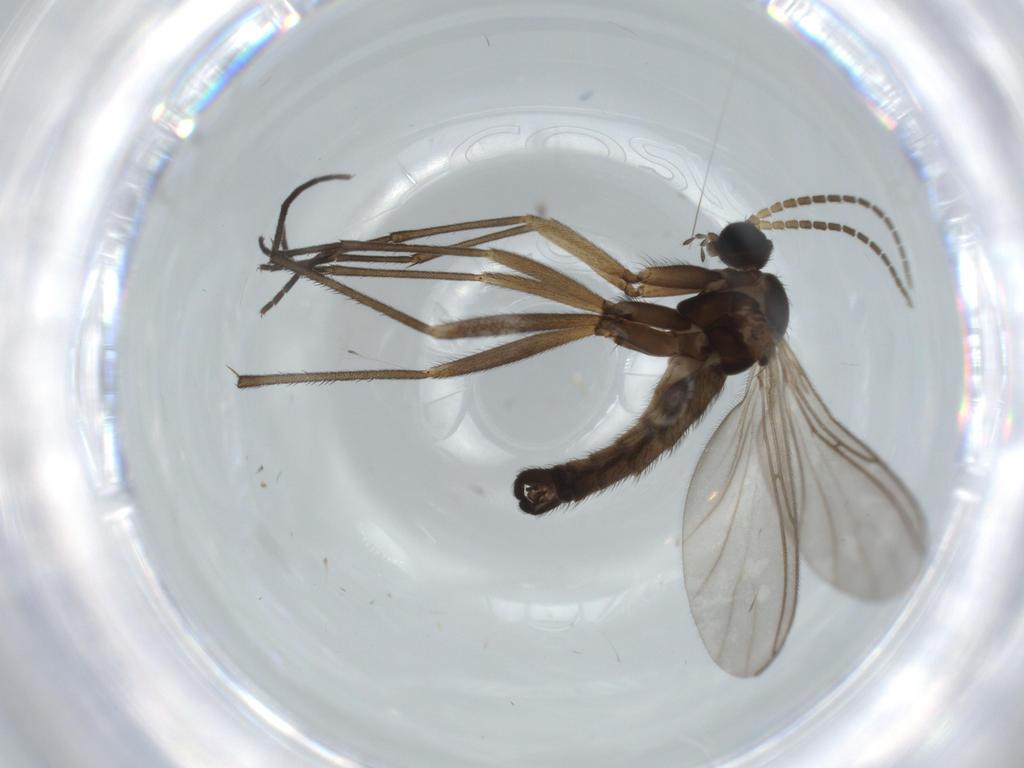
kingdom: Animalia
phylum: Arthropoda
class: Insecta
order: Diptera
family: Sciaridae
